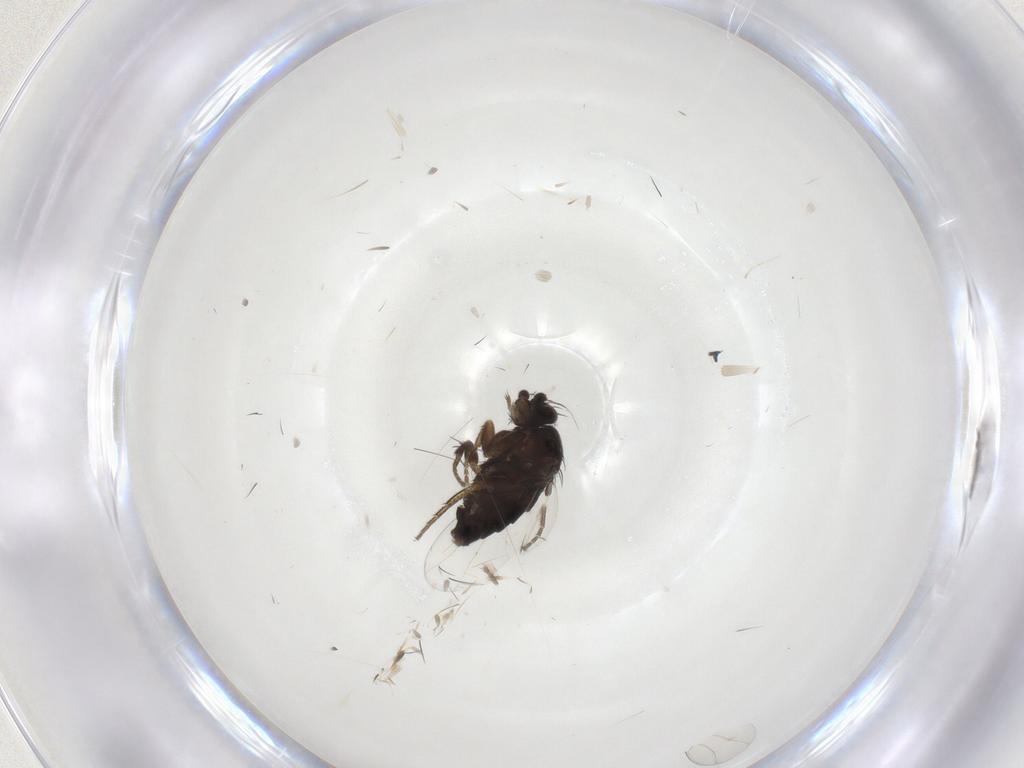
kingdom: Animalia
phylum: Arthropoda
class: Insecta
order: Diptera
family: Phoridae
